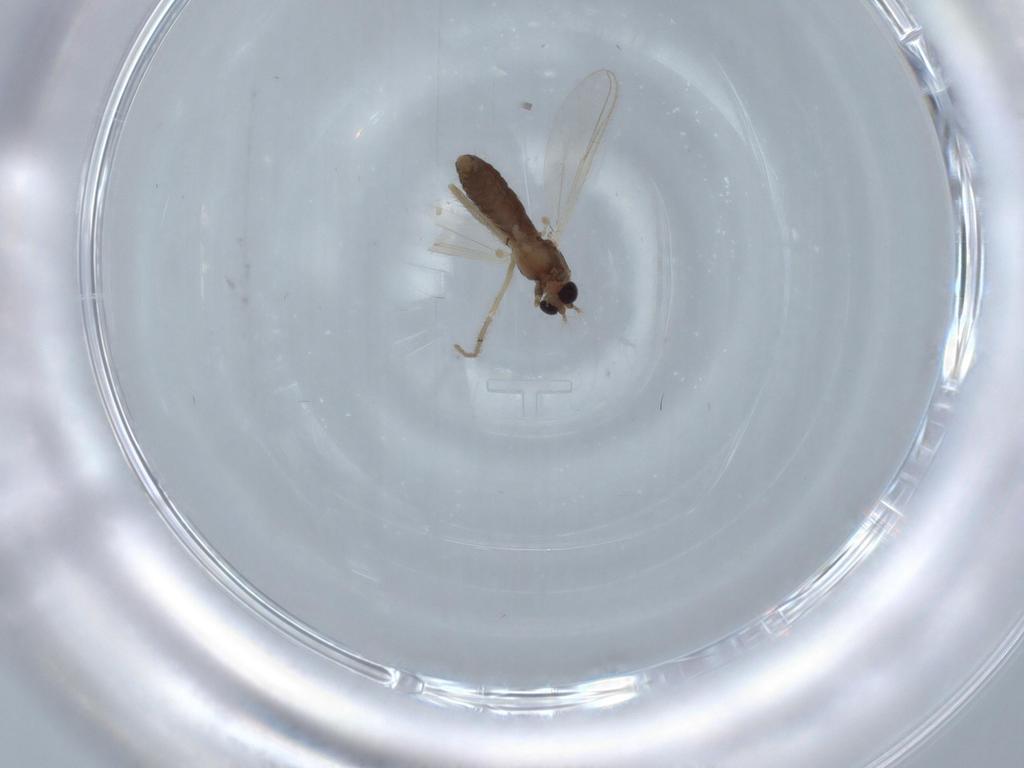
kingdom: Animalia
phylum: Arthropoda
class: Insecta
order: Diptera
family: Chironomidae
